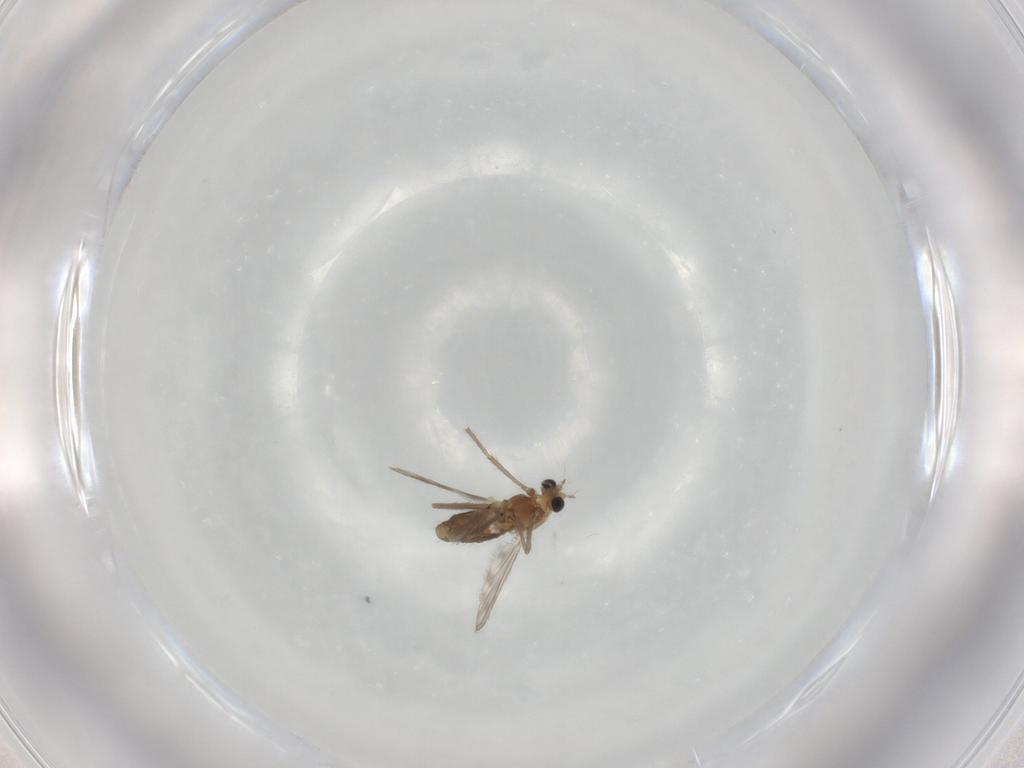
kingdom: Animalia
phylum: Arthropoda
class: Insecta
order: Diptera
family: Chironomidae
